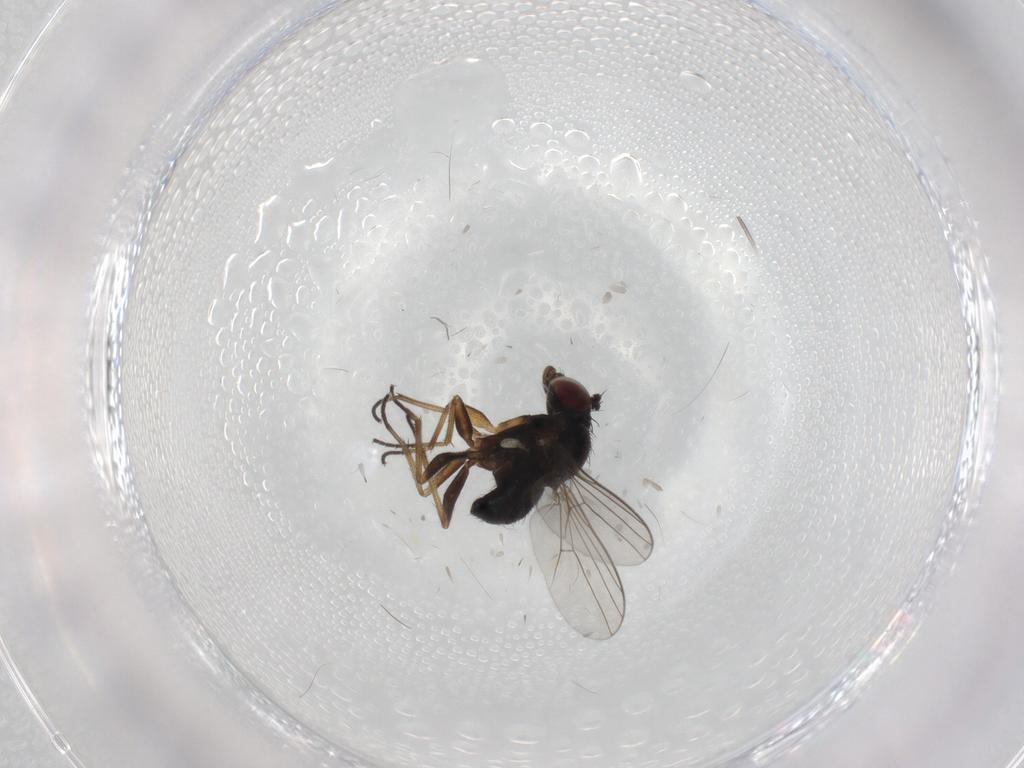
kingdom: Animalia
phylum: Arthropoda
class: Insecta
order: Diptera
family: Dolichopodidae
